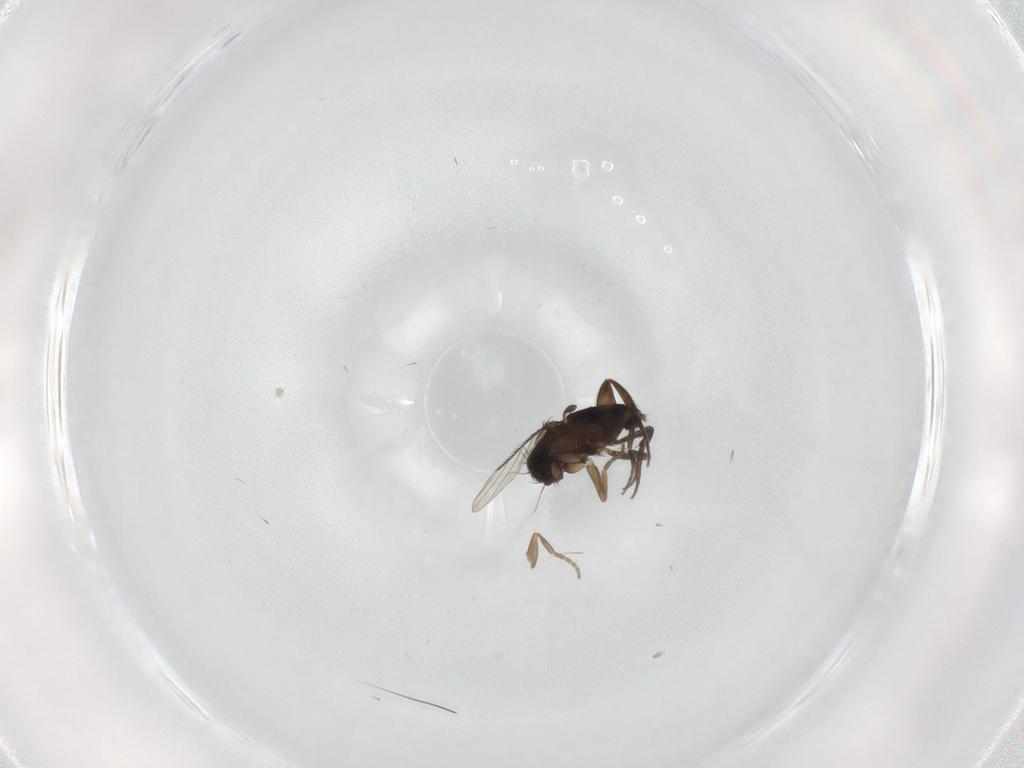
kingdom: Animalia
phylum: Arthropoda
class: Insecta
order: Diptera
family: Phoridae
